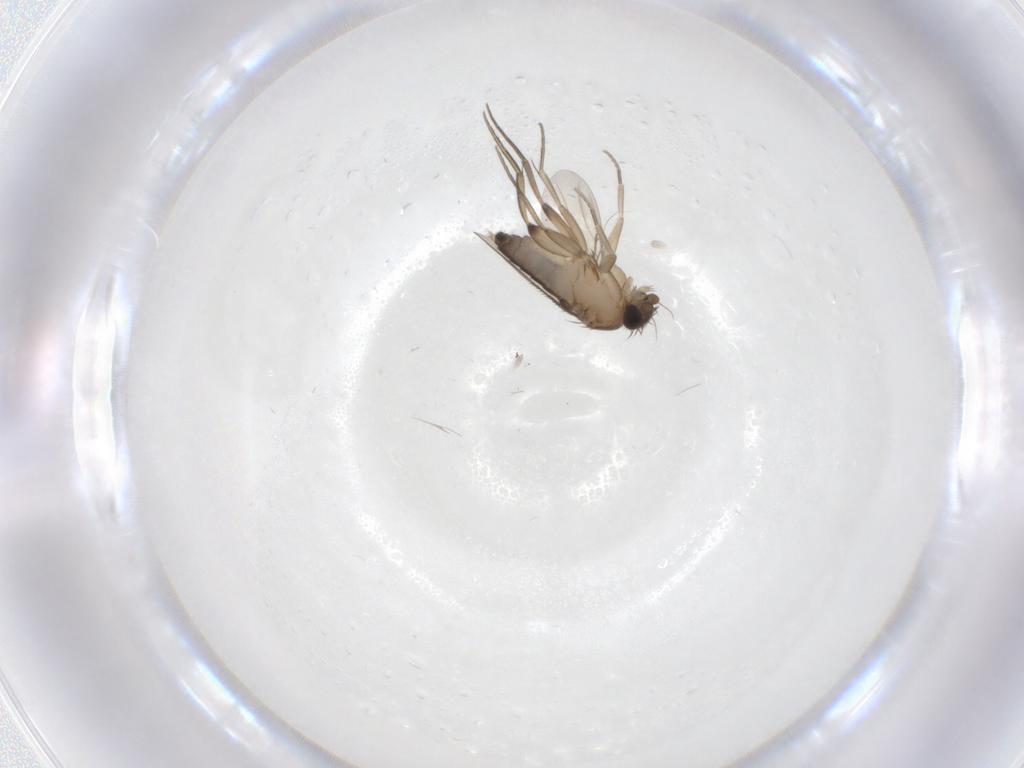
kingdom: Animalia
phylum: Arthropoda
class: Insecta
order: Diptera
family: Phoridae
